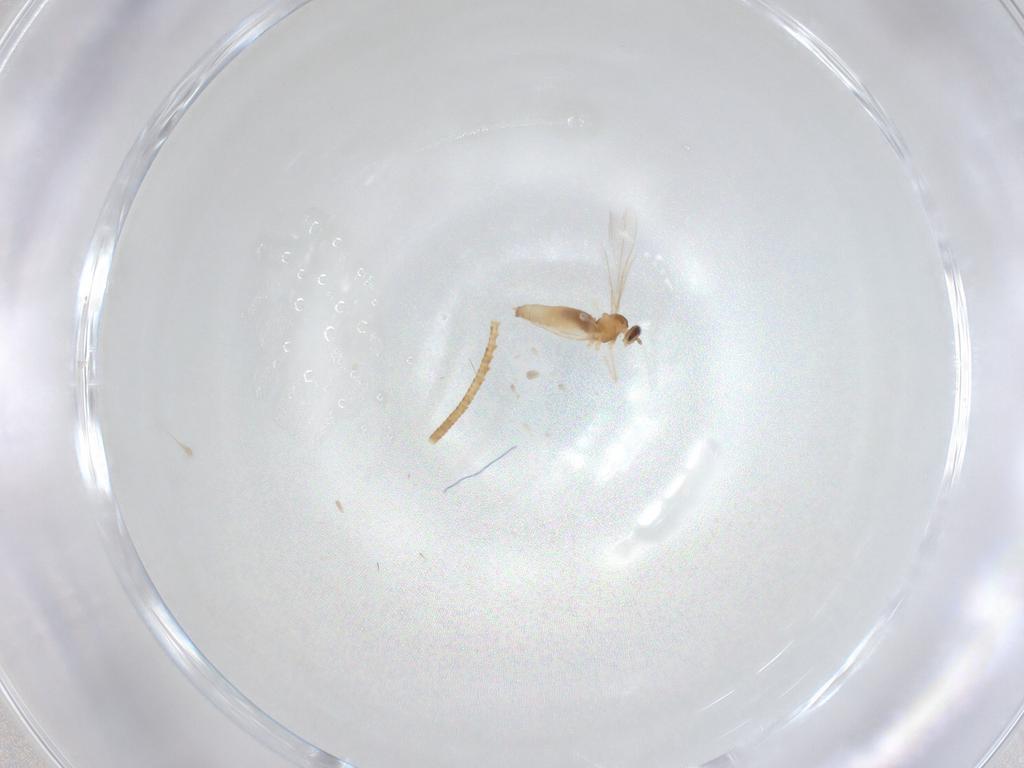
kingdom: Animalia
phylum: Arthropoda
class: Insecta
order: Diptera
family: Cecidomyiidae
